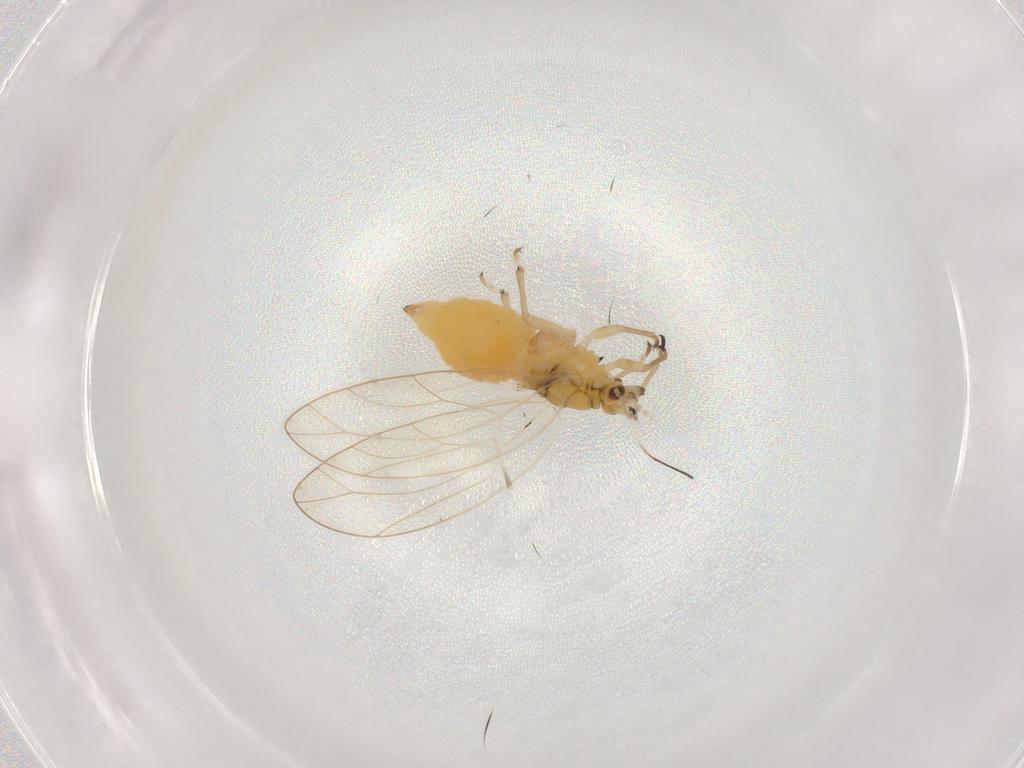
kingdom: Animalia
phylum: Arthropoda
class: Insecta
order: Hemiptera
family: Triozidae
